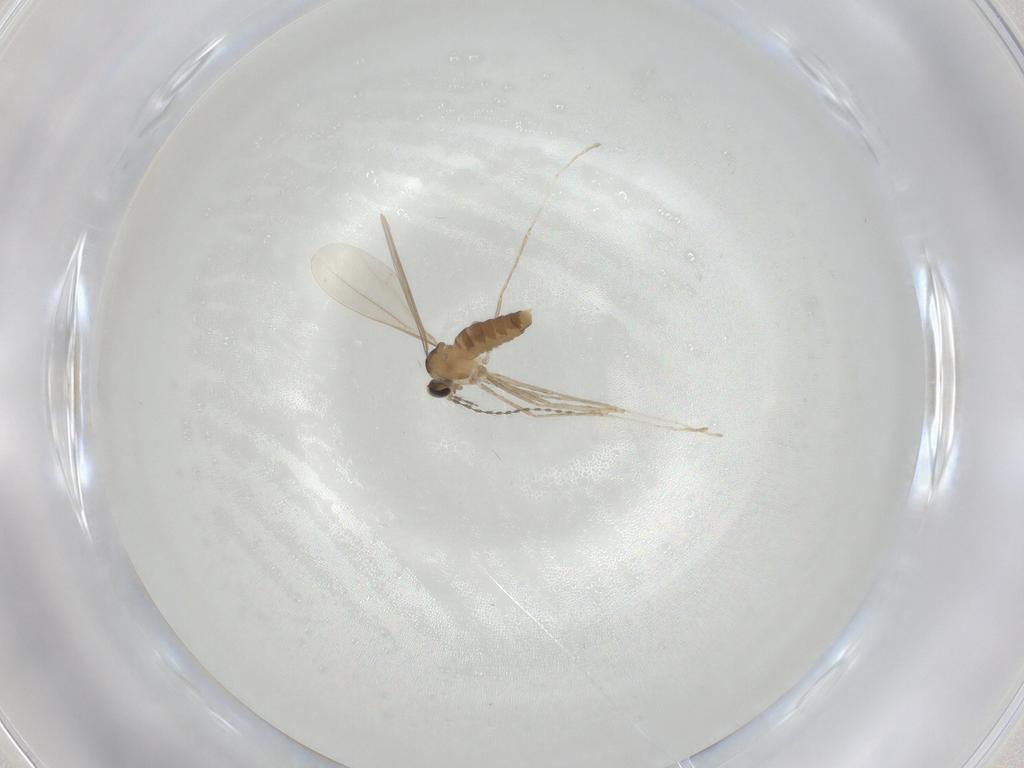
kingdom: Animalia
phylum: Arthropoda
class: Insecta
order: Diptera
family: Cecidomyiidae
